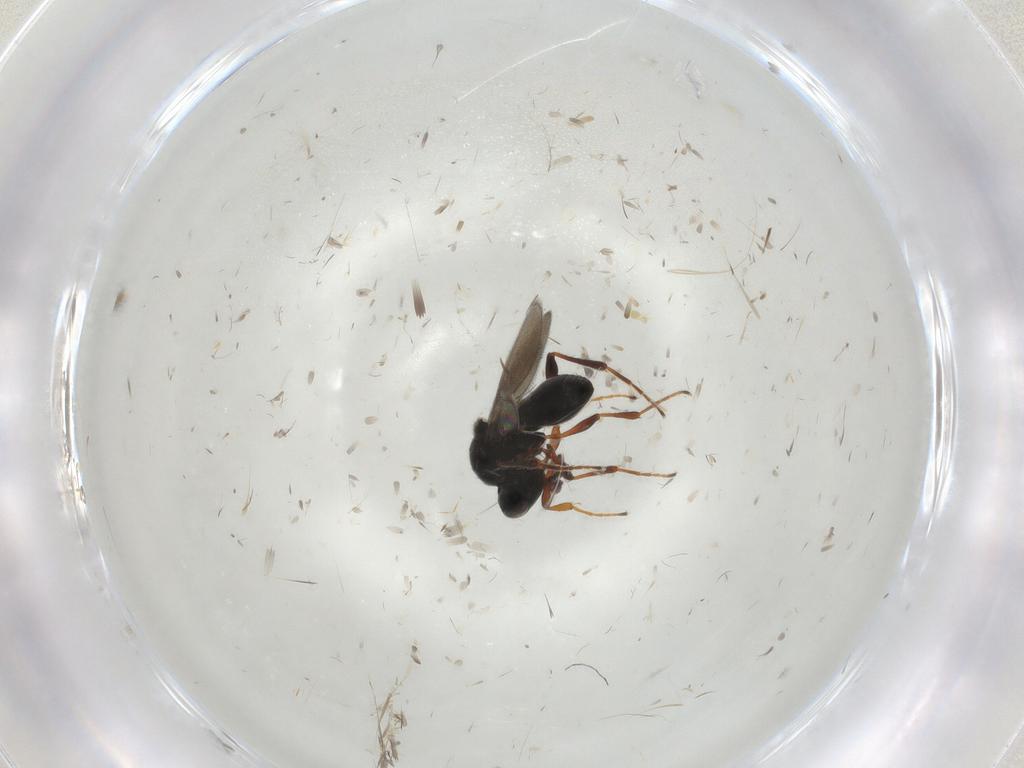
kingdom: Animalia
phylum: Arthropoda
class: Insecta
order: Hymenoptera
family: Platygastridae
